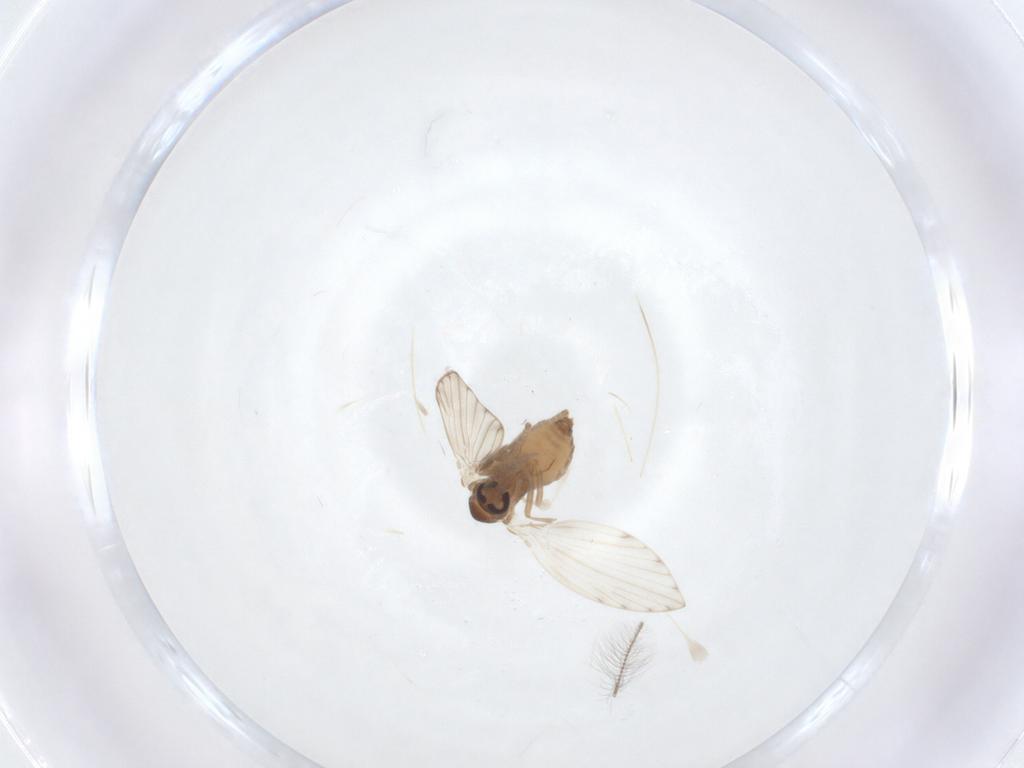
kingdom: Animalia
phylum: Arthropoda
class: Insecta
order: Diptera
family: Psychodidae
